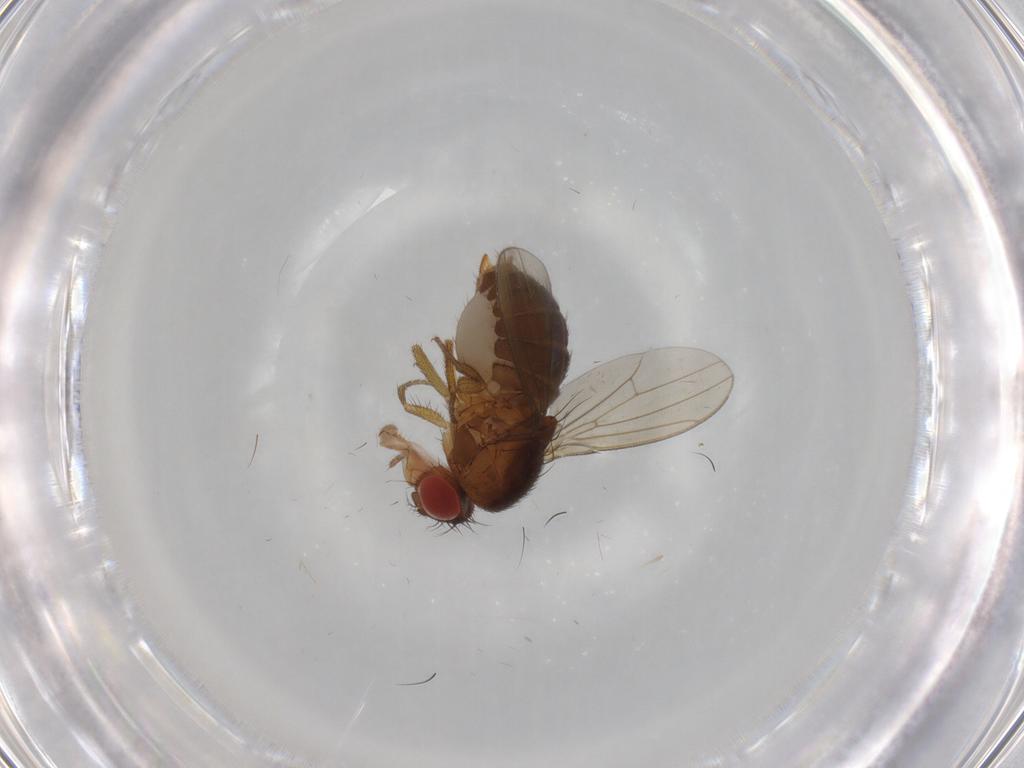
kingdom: Animalia
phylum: Arthropoda
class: Insecta
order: Diptera
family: Drosophilidae
